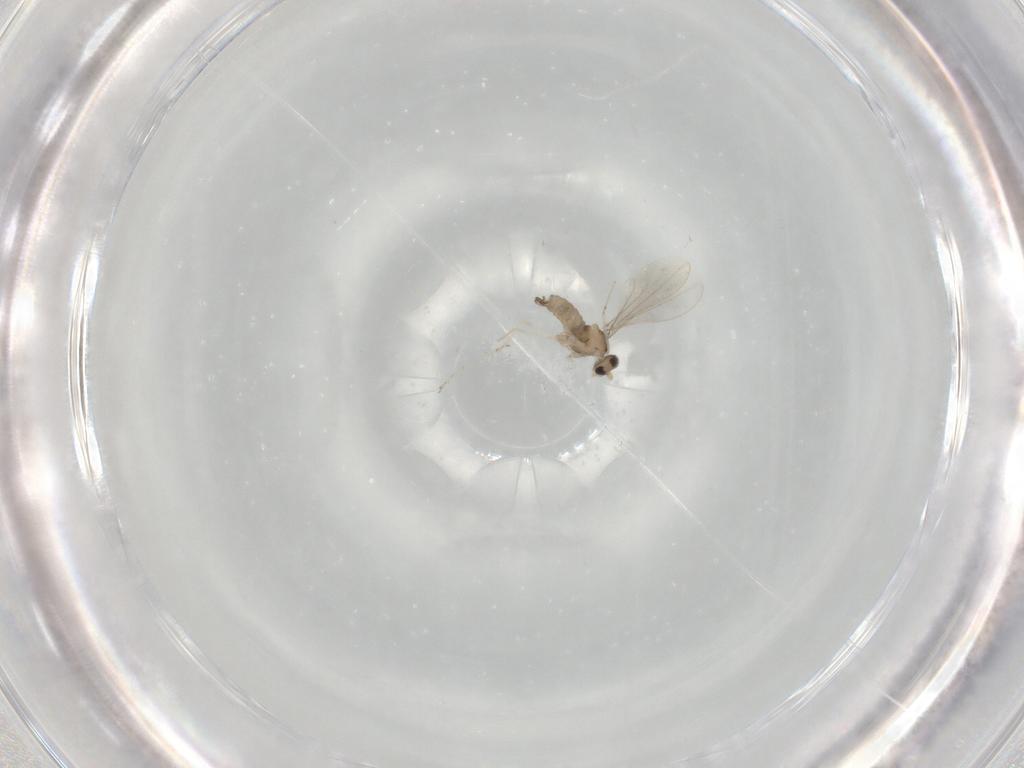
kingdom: Animalia
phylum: Arthropoda
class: Insecta
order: Diptera
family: Cecidomyiidae
